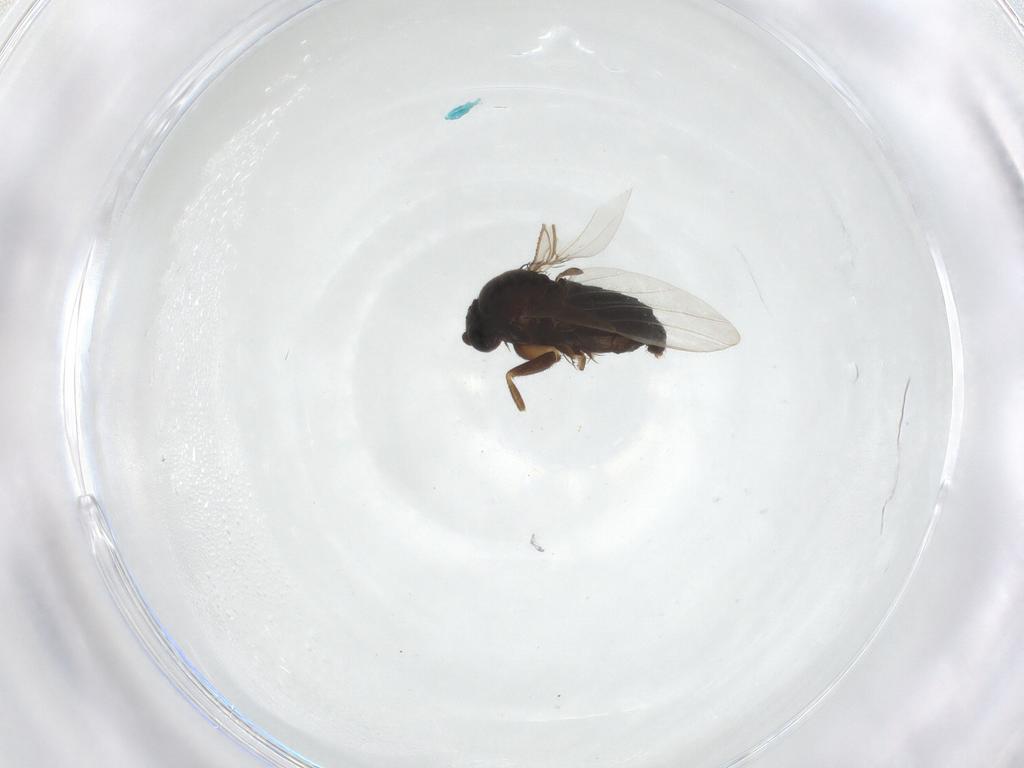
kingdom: Animalia
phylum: Arthropoda
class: Insecta
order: Diptera
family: Phoridae
